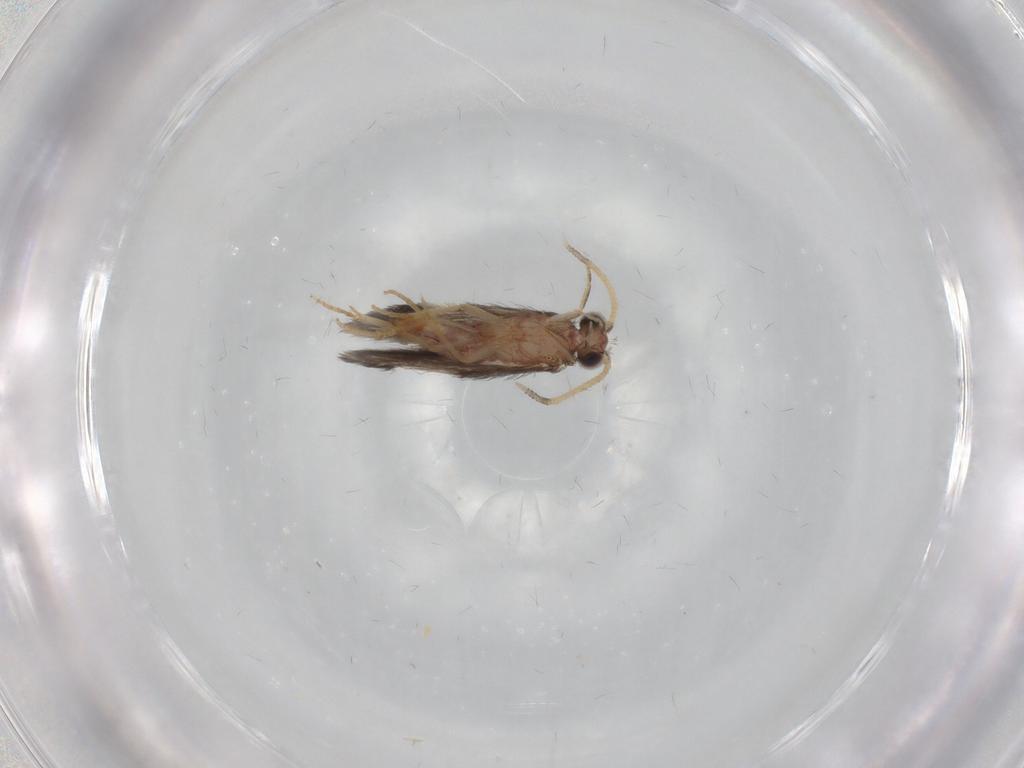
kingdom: Animalia
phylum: Arthropoda
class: Insecta
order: Trichoptera
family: Hydroptilidae
